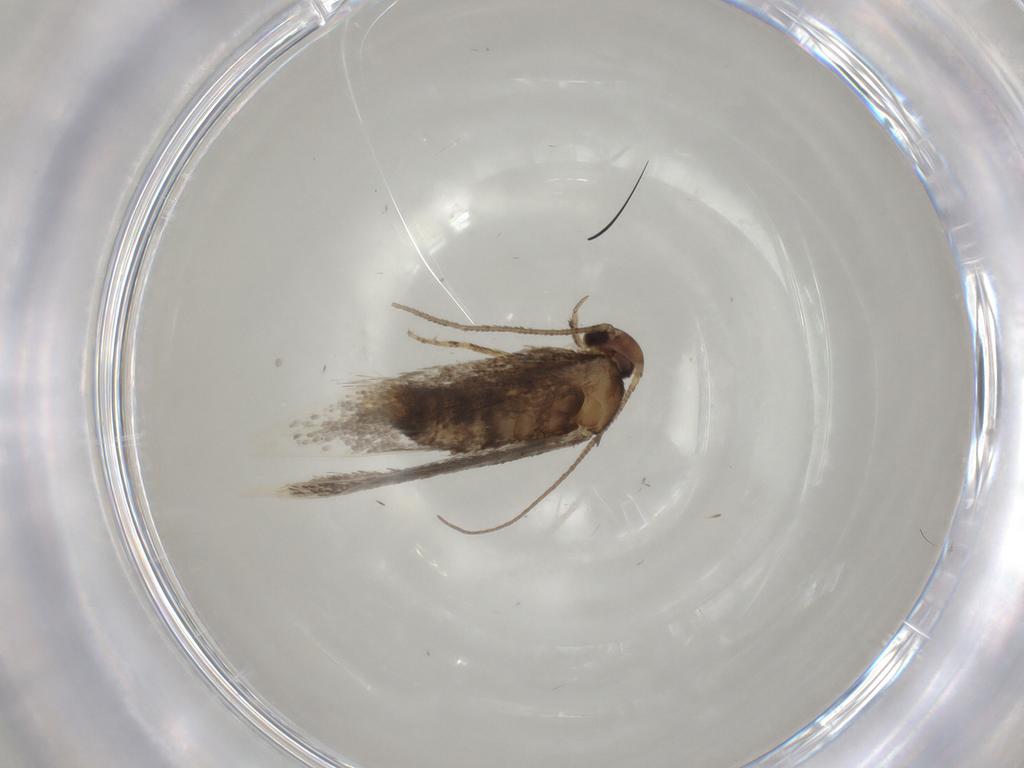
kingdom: Animalia
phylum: Arthropoda
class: Insecta
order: Lepidoptera
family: Elachistidae
